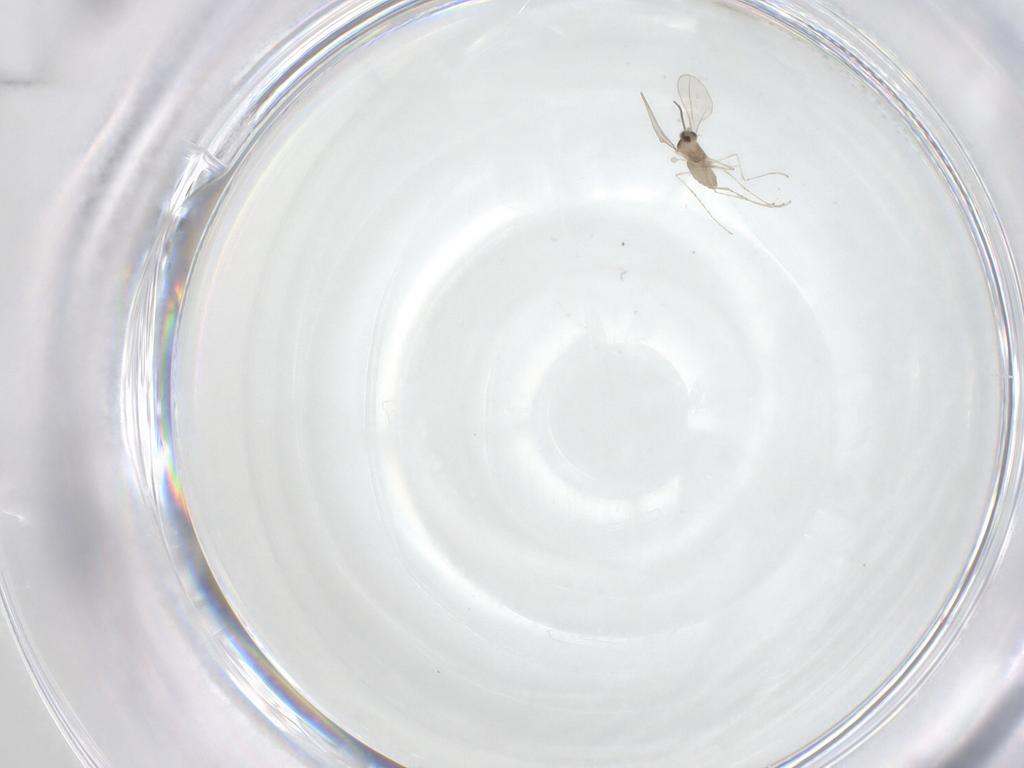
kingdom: Animalia
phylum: Arthropoda
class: Insecta
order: Diptera
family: Cecidomyiidae
